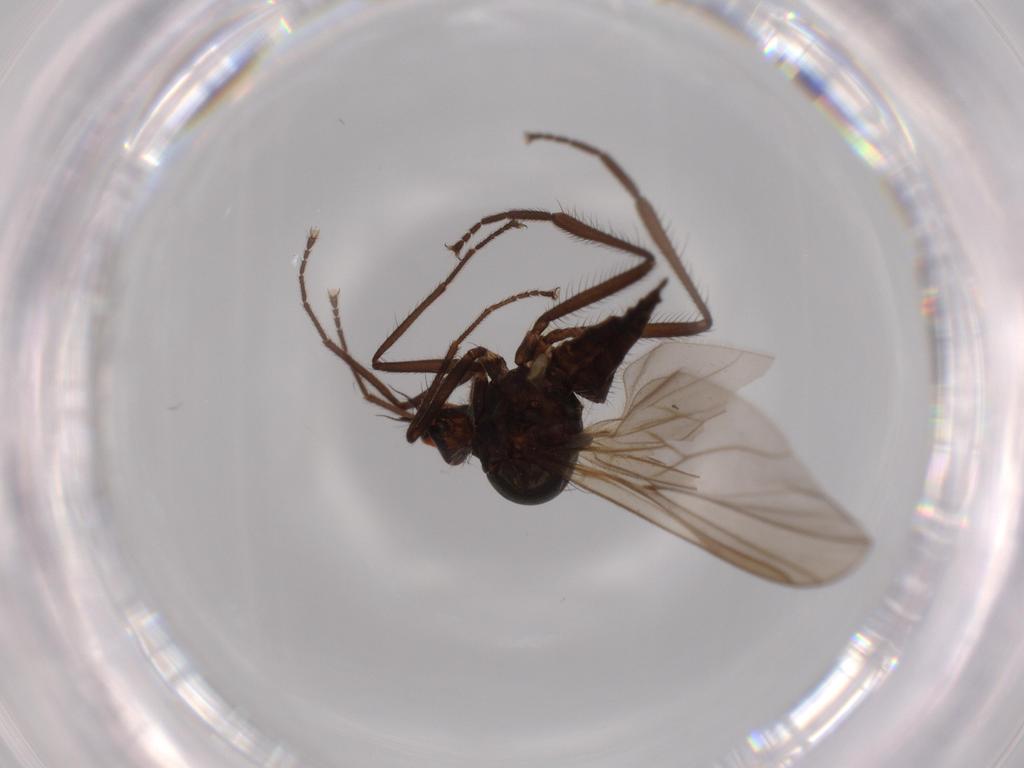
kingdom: Animalia
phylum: Arthropoda
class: Insecta
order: Diptera
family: Hybotidae
